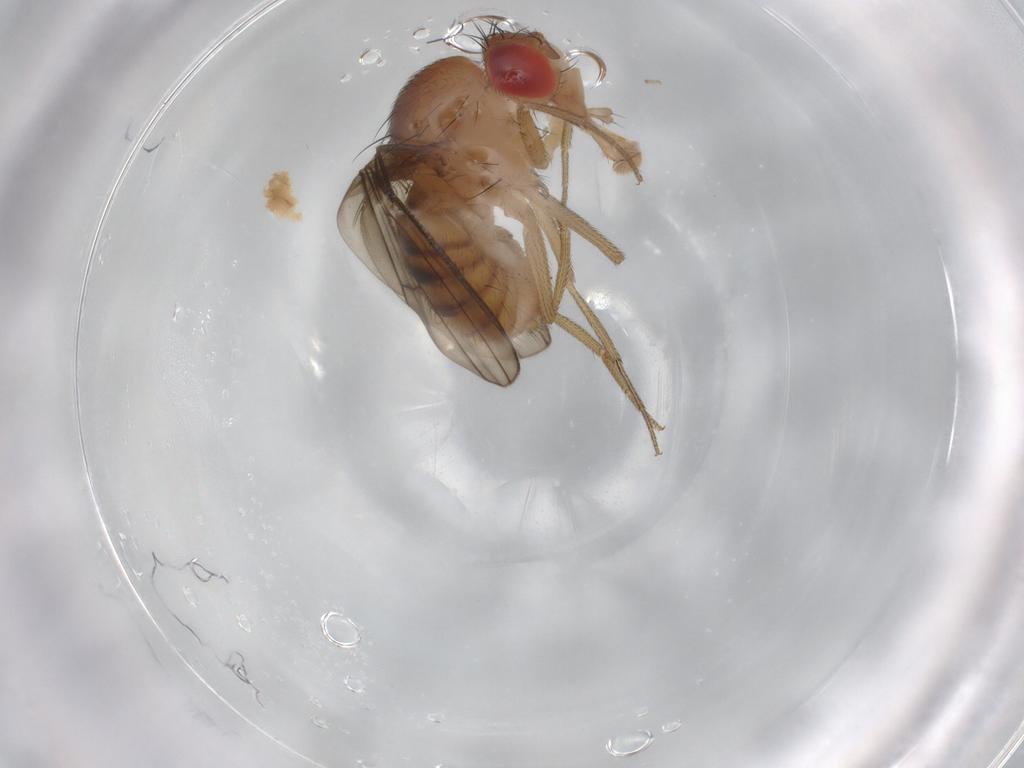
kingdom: Animalia
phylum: Arthropoda
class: Insecta
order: Diptera
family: Drosophilidae
